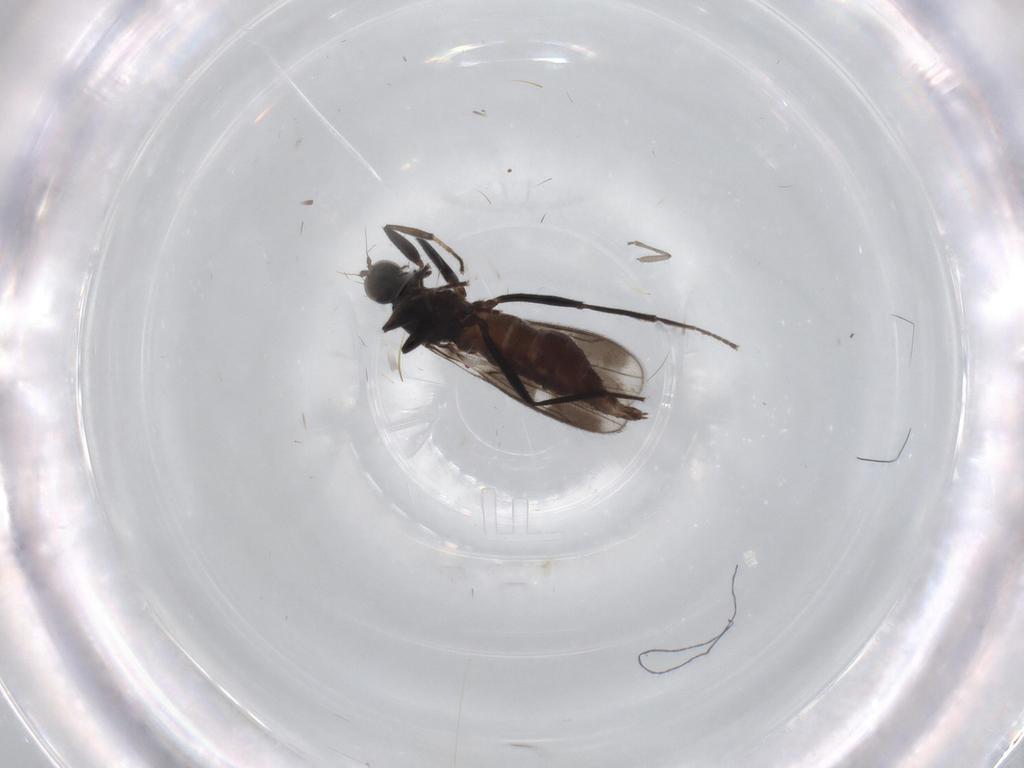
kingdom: Animalia
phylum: Arthropoda
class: Insecta
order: Diptera
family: Hybotidae
